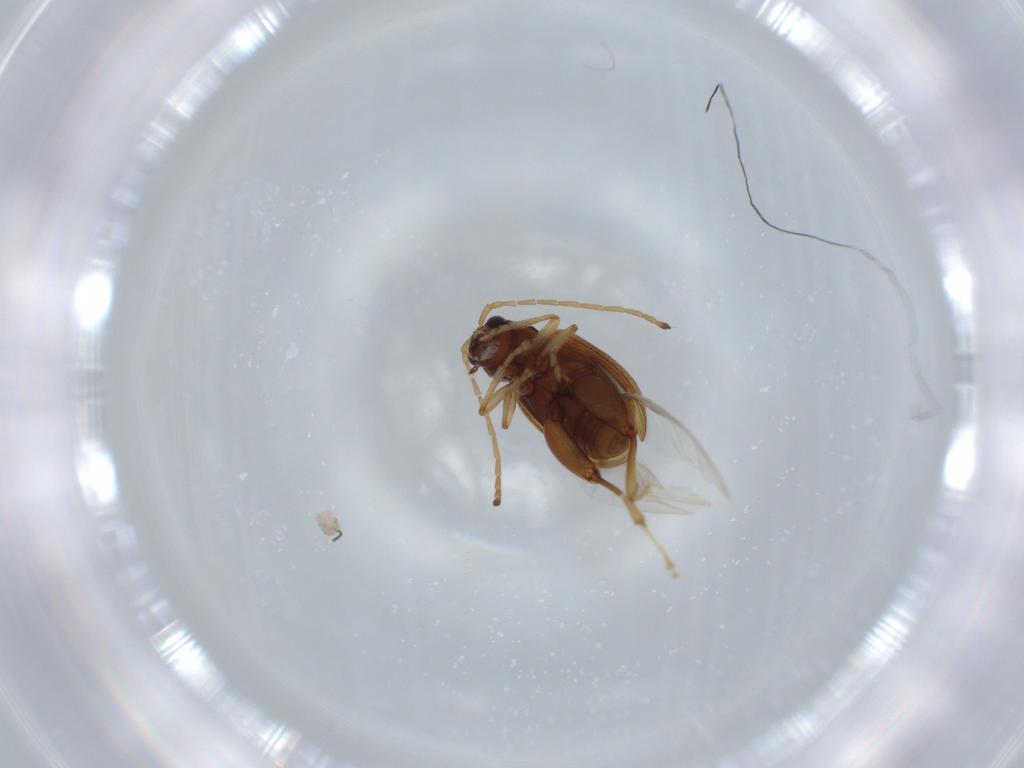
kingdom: Animalia
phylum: Arthropoda
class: Insecta
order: Coleoptera
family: Chrysomelidae
